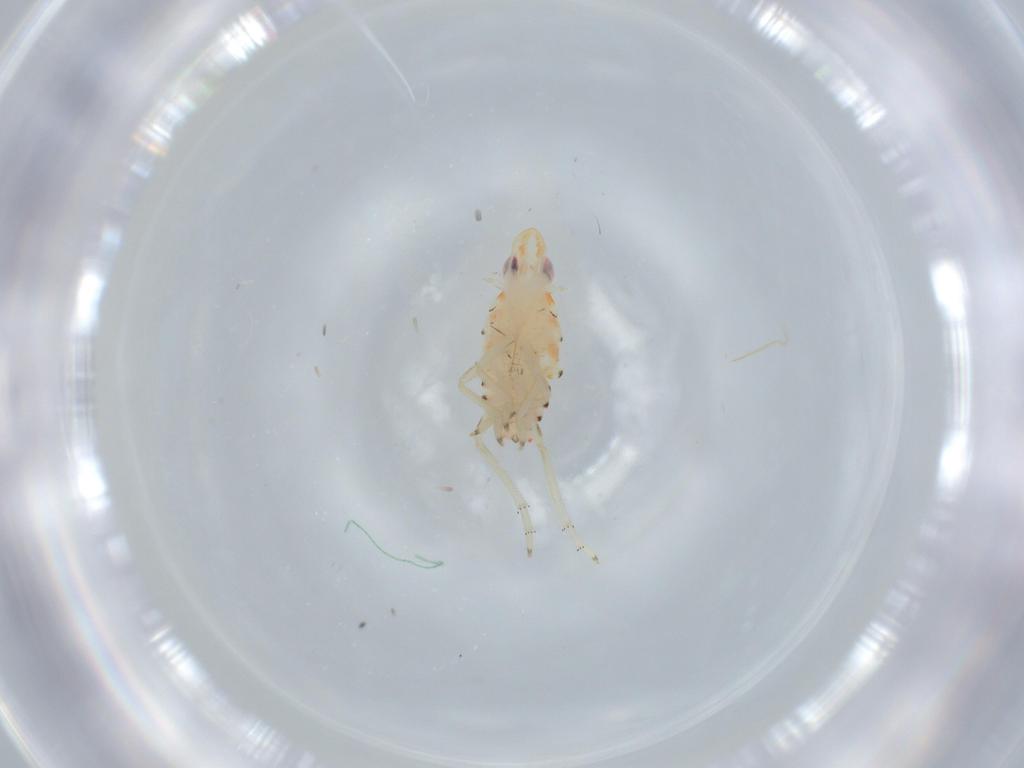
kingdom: Animalia
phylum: Arthropoda
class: Insecta
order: Hemiptera
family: Tropiduchidae
